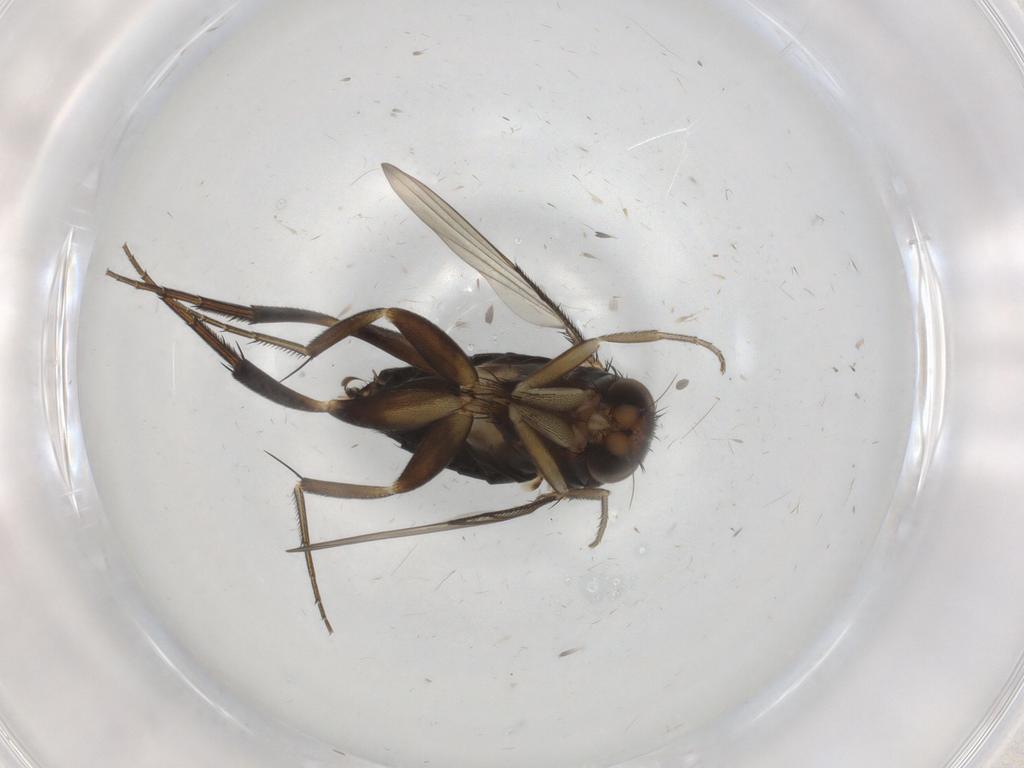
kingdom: Animalia
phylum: Arthropoda
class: Insecta
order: Diptera
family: Phoridae
